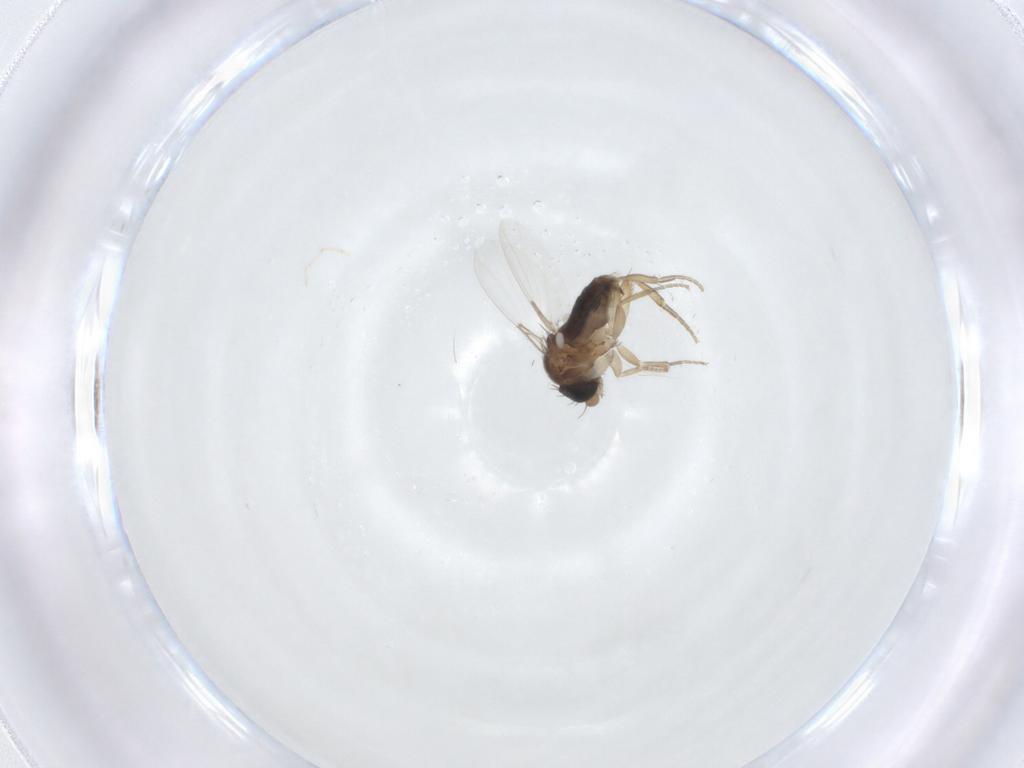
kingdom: Animalia
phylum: Arthropoda
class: Insecta
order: Diptera
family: Phoridae
